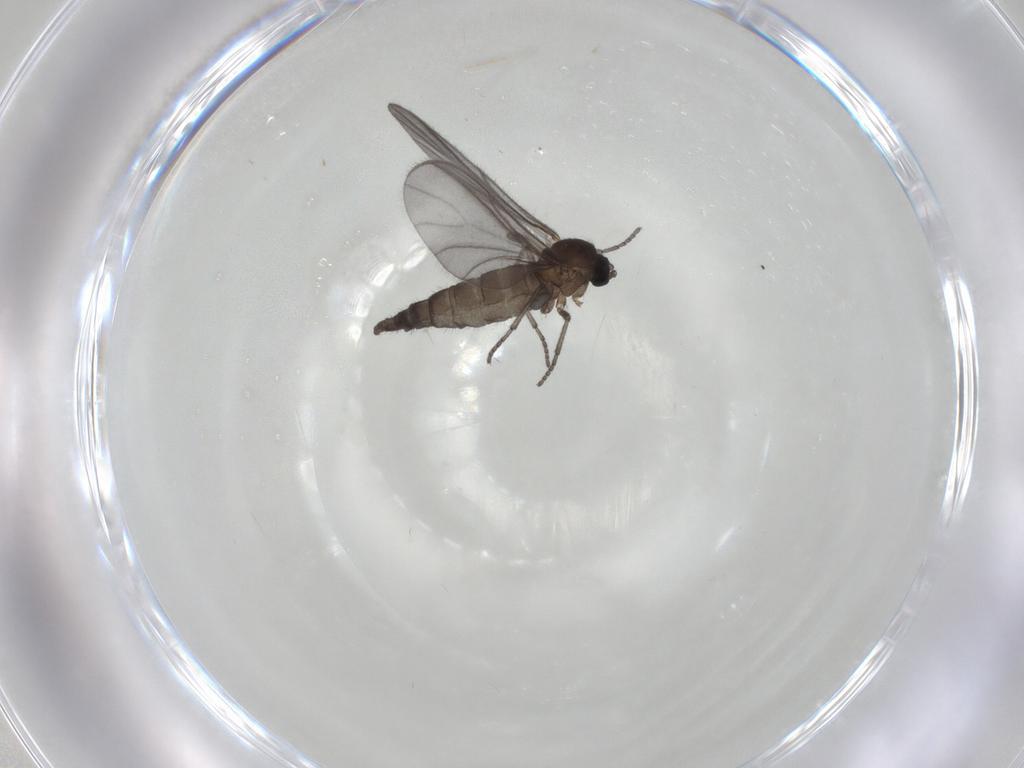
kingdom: Animalia
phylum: Arthropoda
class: Insecta
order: Diptera
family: Sciaridae
